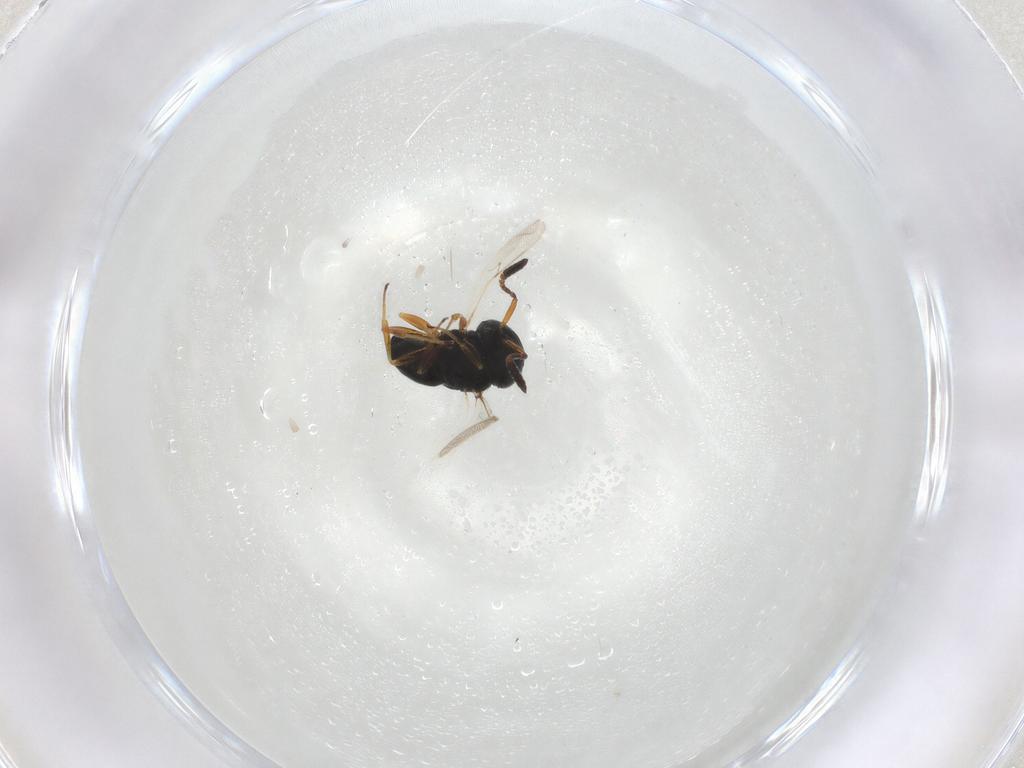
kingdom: Animalia
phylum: Arthropoda
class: Insecta
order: Hymenoptera
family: Scelionidae
